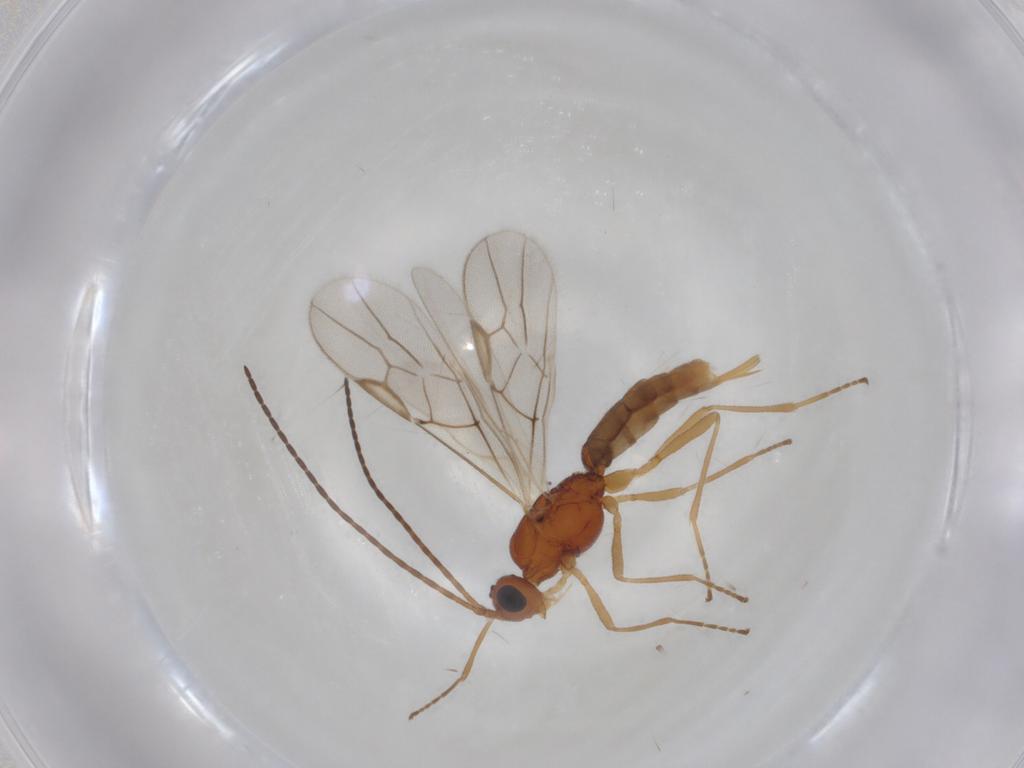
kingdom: Animalia
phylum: Arthropoda
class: Insecta
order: Hymenoptera
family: Braconidae
